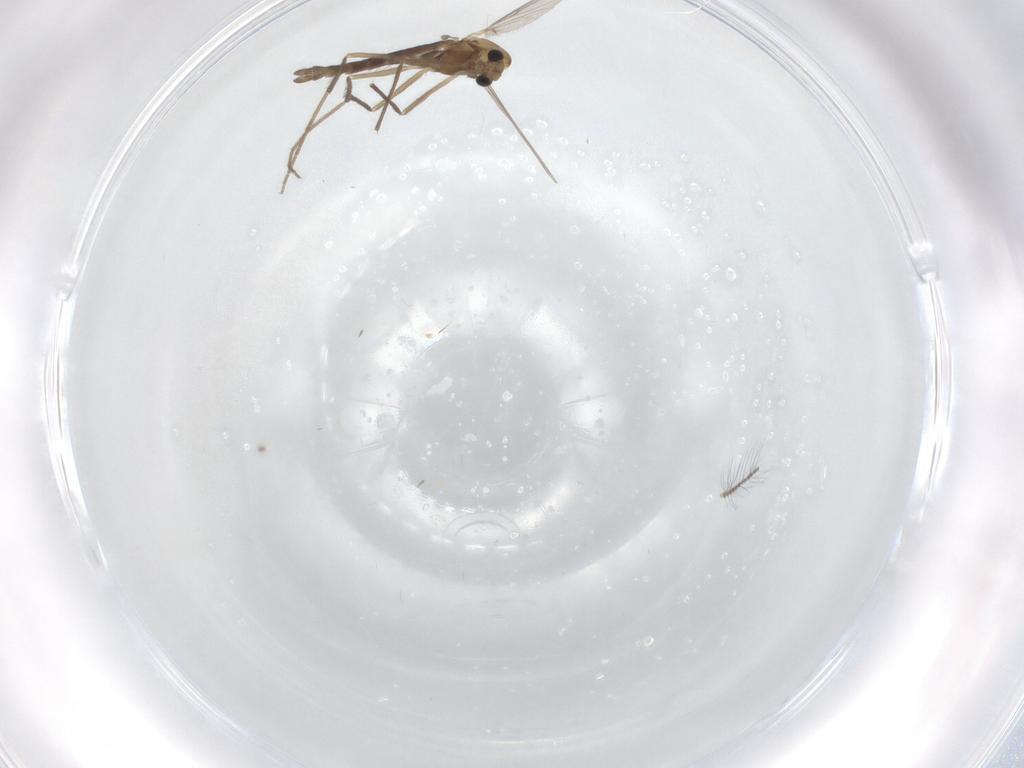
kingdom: Animalia
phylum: Arthropoda
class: Insecta
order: Diptera
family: Chironomidae
